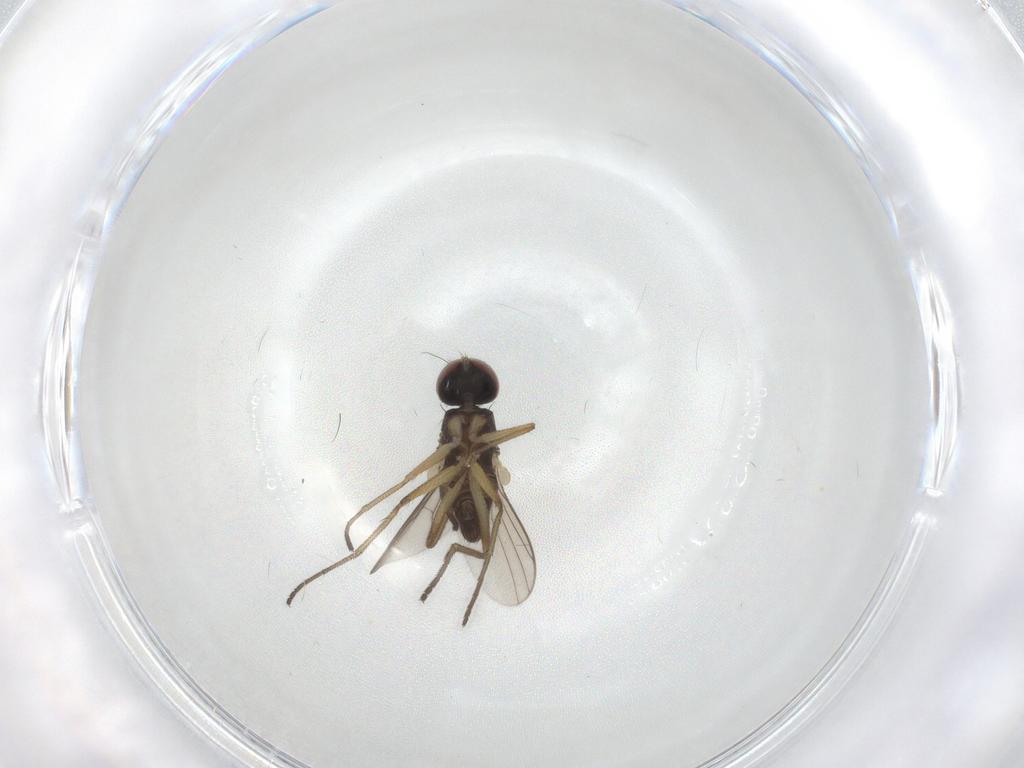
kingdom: Animalia
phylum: Arthropoda
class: Insecta
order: Diptera
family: Dolichopodidae
